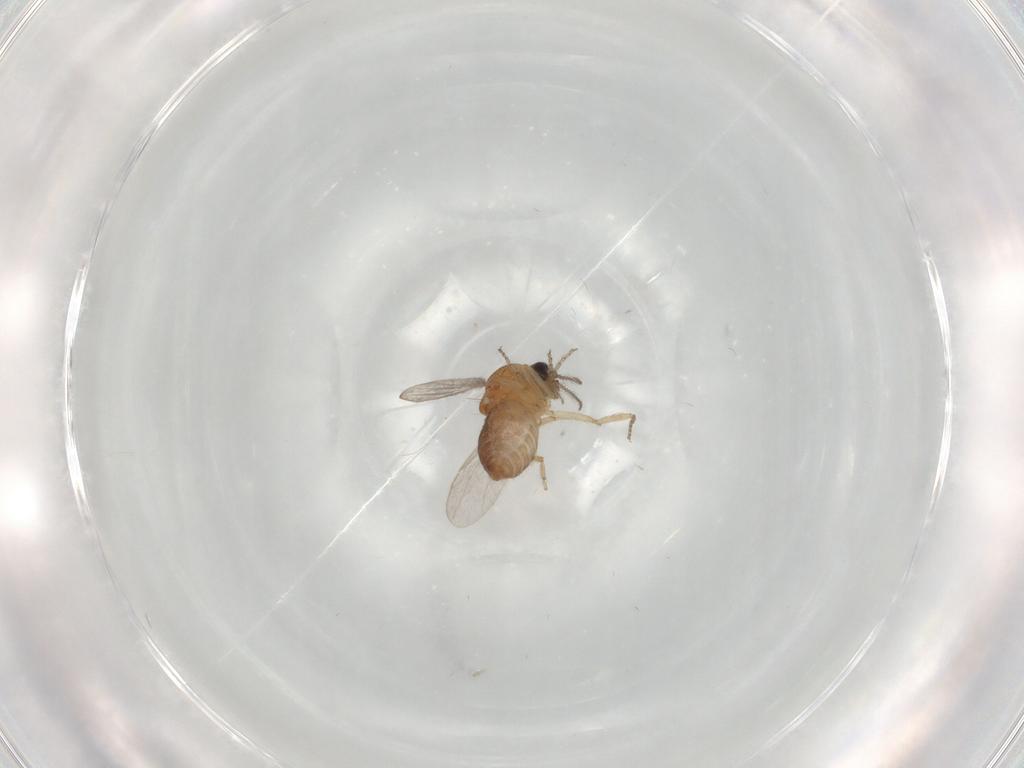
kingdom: Animalia
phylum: Arthropoda
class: Insecta
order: Diptera
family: Ceratopogonidae
